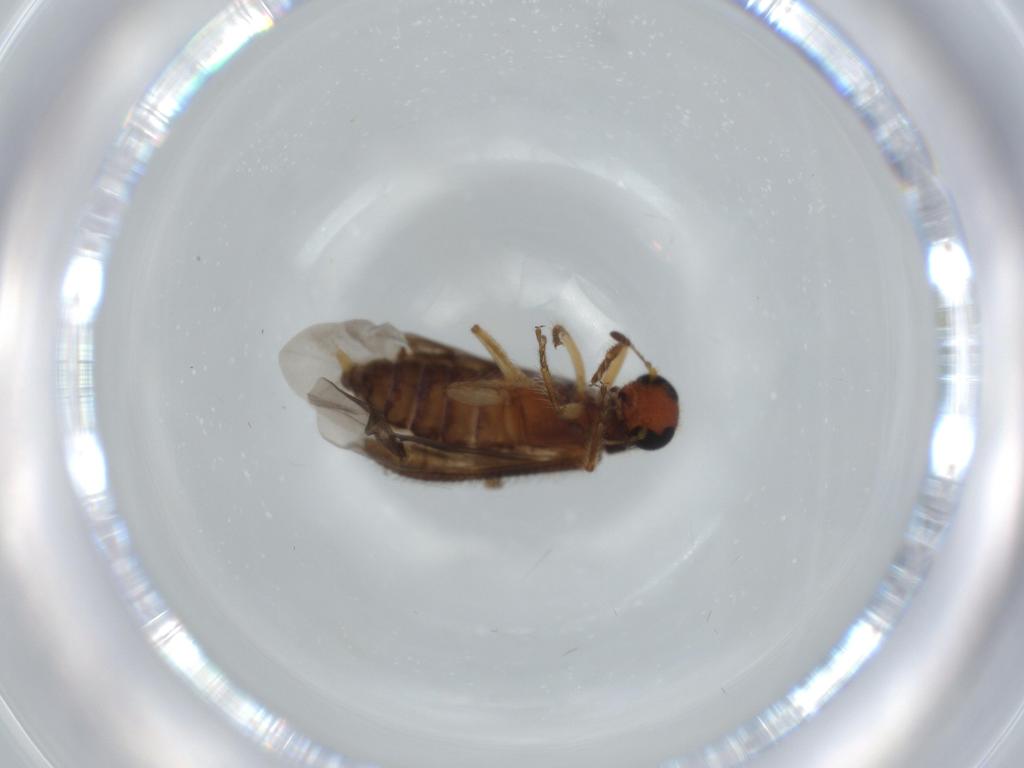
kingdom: Animalia
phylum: Arthropoda
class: Insecta
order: Coleoptera
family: Cleridae
